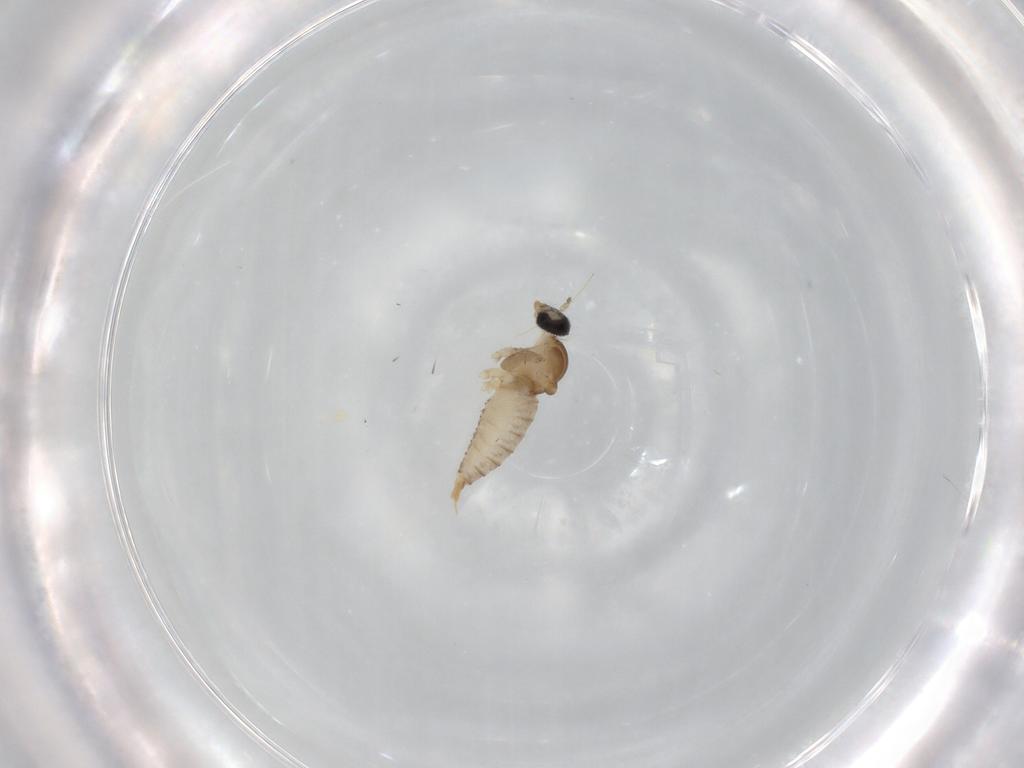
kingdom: Animalia
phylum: Arthropoda
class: Insecta
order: Diptera
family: Cecidomyiidae
